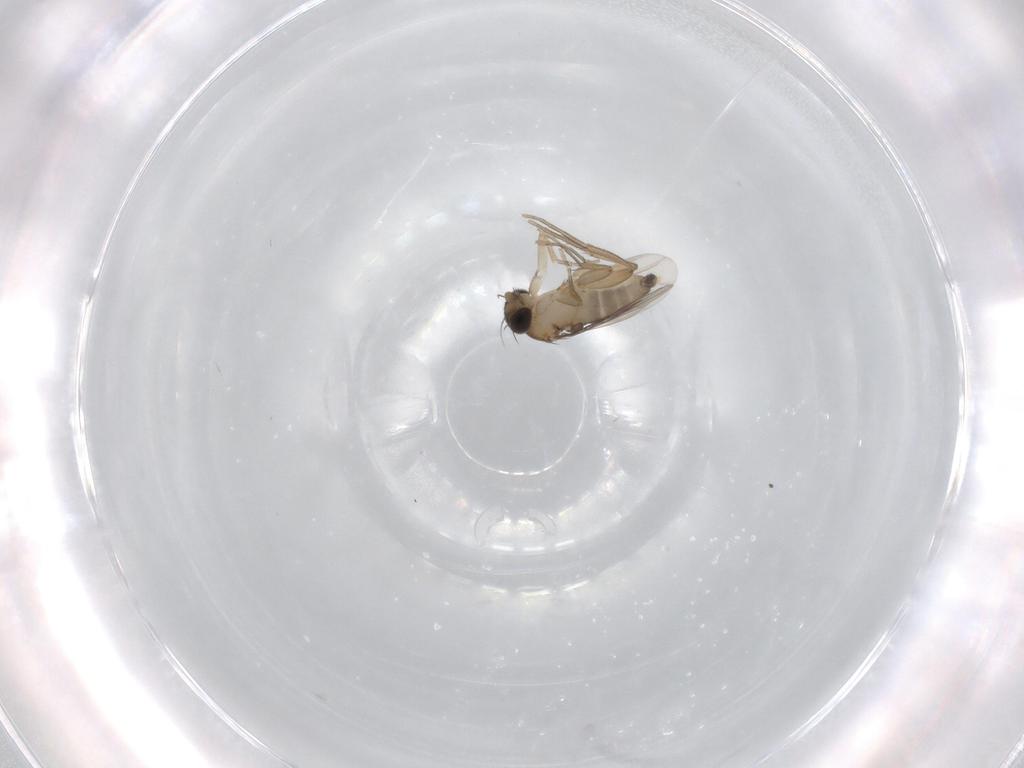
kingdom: Animalia
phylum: Arthropoda
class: Insecta
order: Diptera
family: Phoridae
